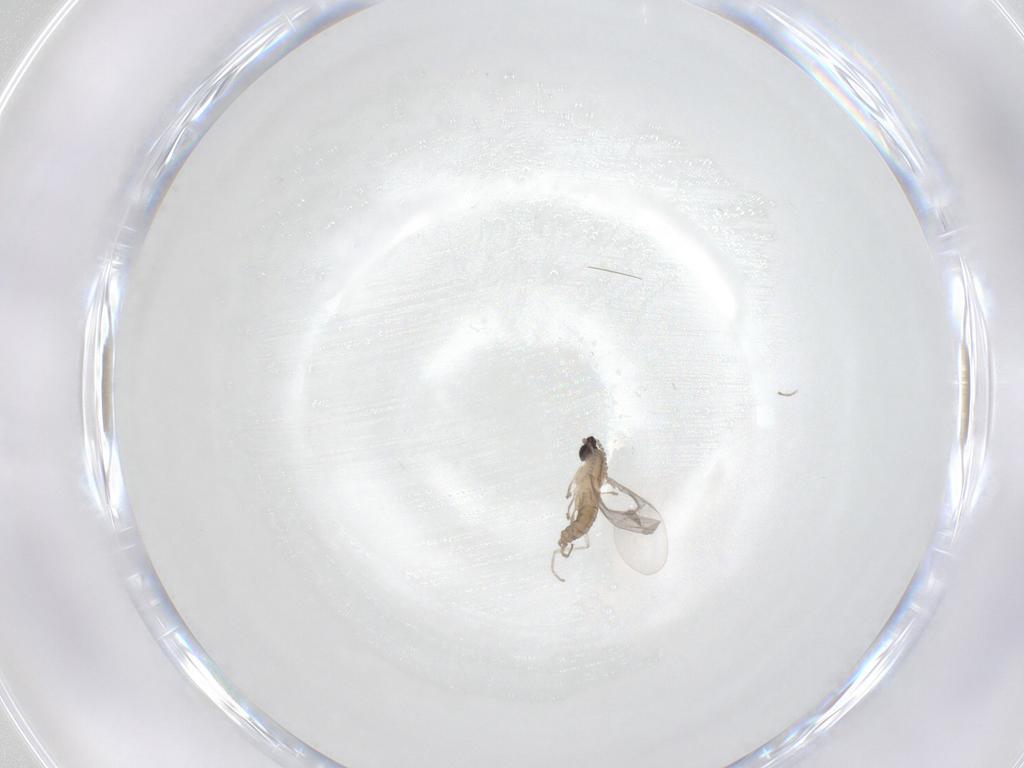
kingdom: Animalia
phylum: Arthropoda
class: Insecta
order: Diptera
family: Cecidomyiidae
